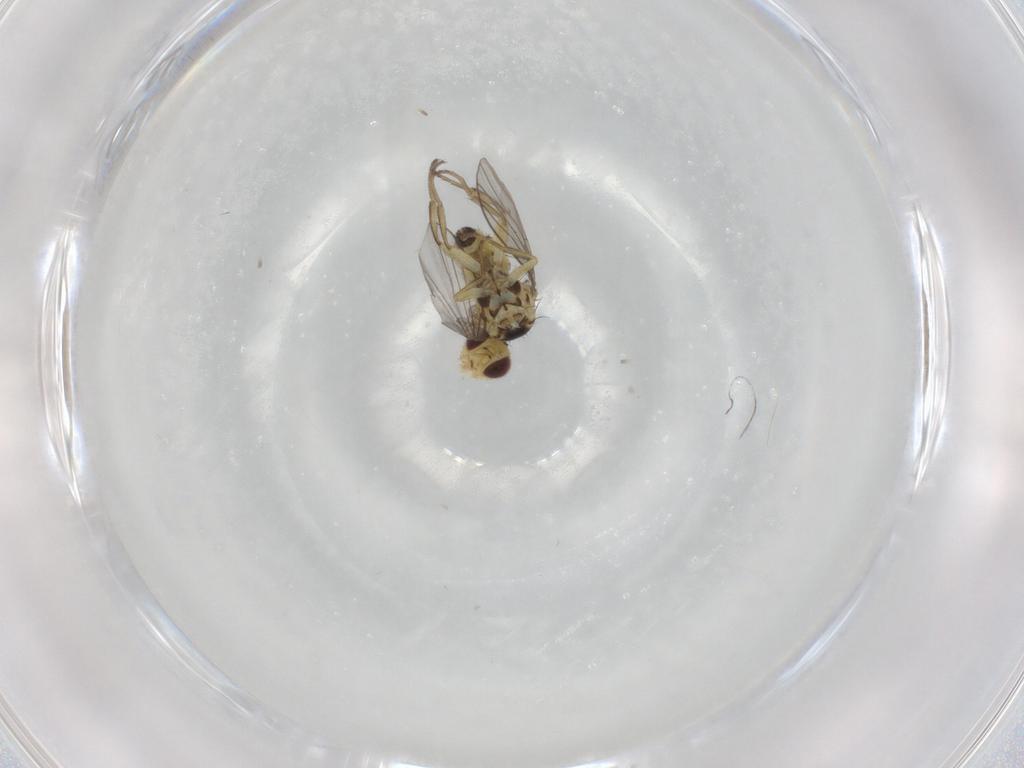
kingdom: Animalia
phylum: Arthropoda
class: Insecta
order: Diptera
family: Agromyzidae
